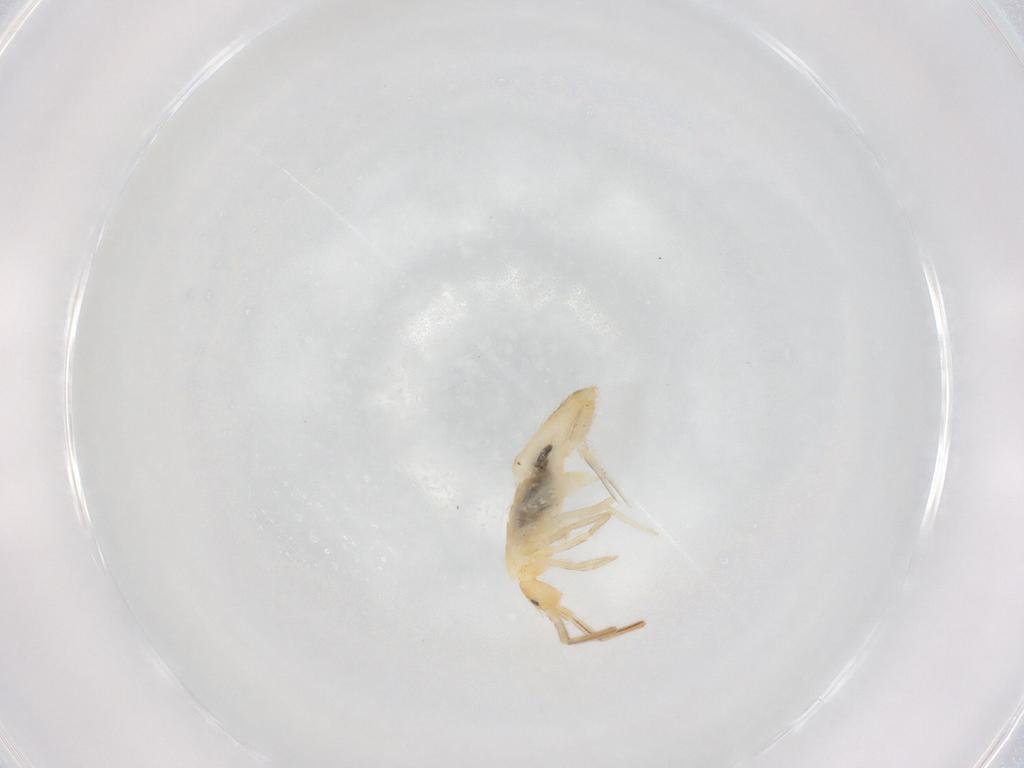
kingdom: Animalia
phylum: Arthropoda
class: Collembola
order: Entomobryomorpha
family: Entomobryidae
